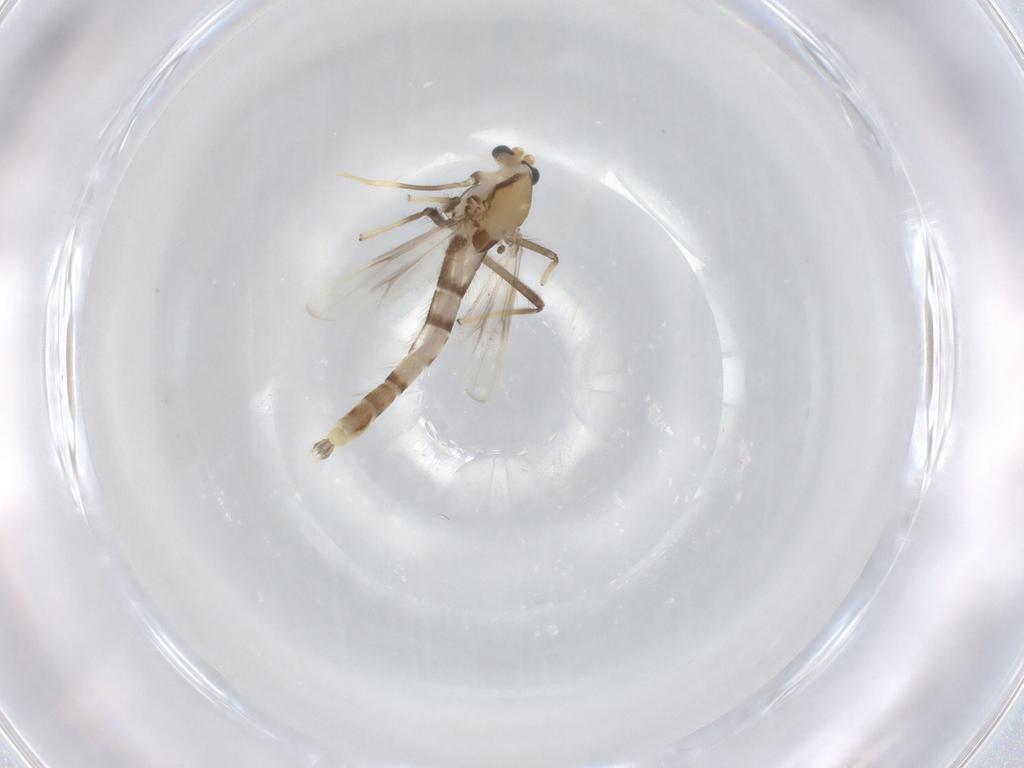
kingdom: Animalia
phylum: Arthropoda
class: Insecta
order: Diptera
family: Chironomidae
